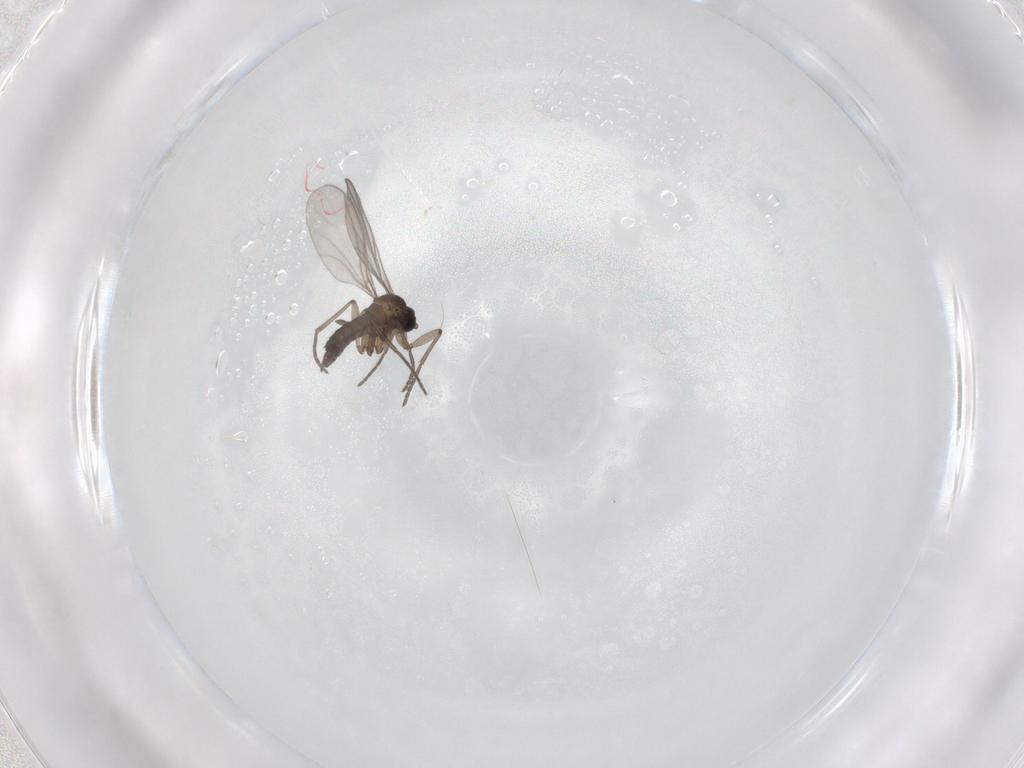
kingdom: Animalia
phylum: Arthropoda
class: Insecta
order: Diptera
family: Sciaridae
